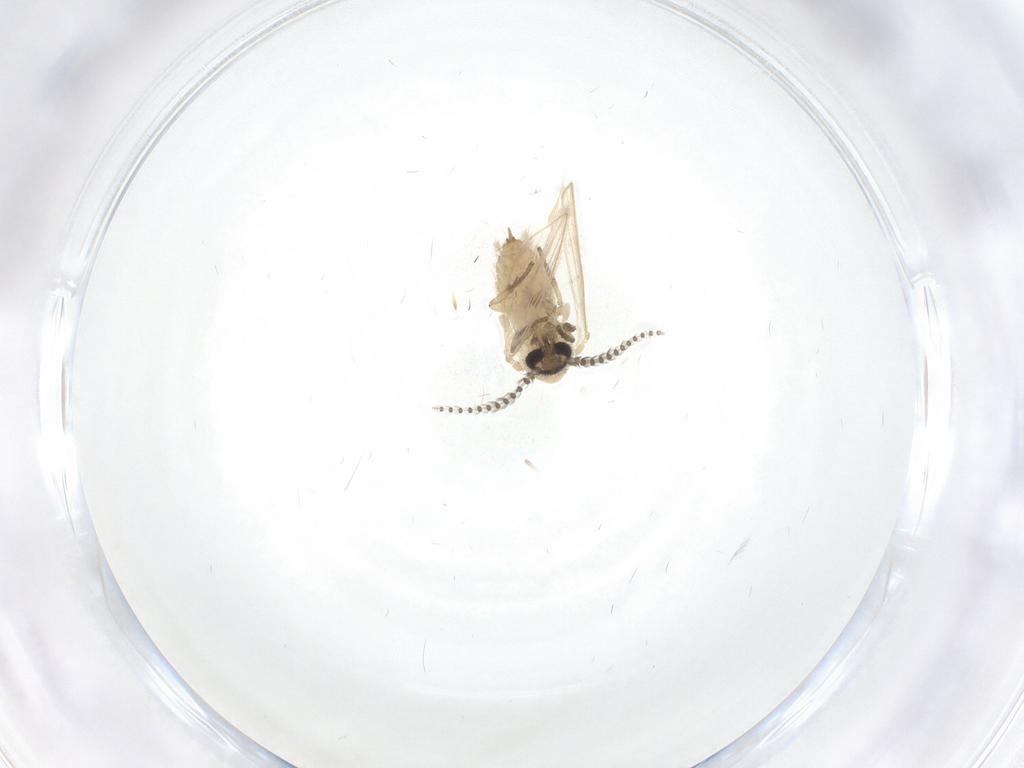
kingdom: Animalia
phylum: Arthropoda
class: Insecta
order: Diptera
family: Psychodidae
